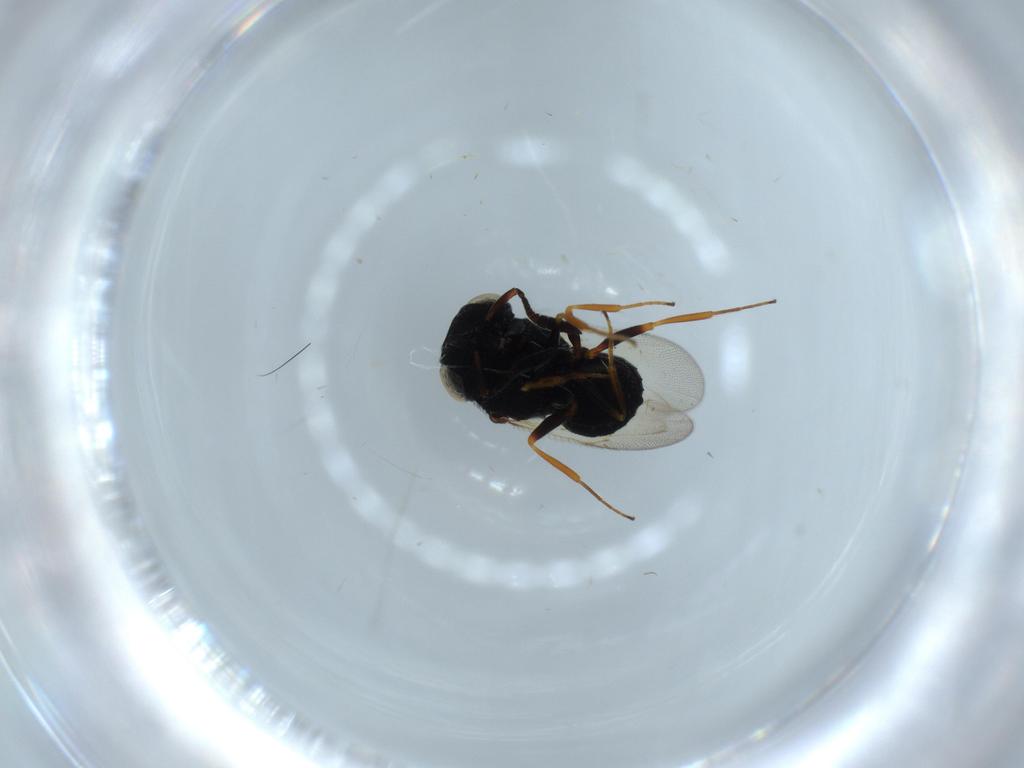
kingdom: Animalia
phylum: Arthropoda
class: Insecta
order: Hymenoptera
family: Scelionidae
